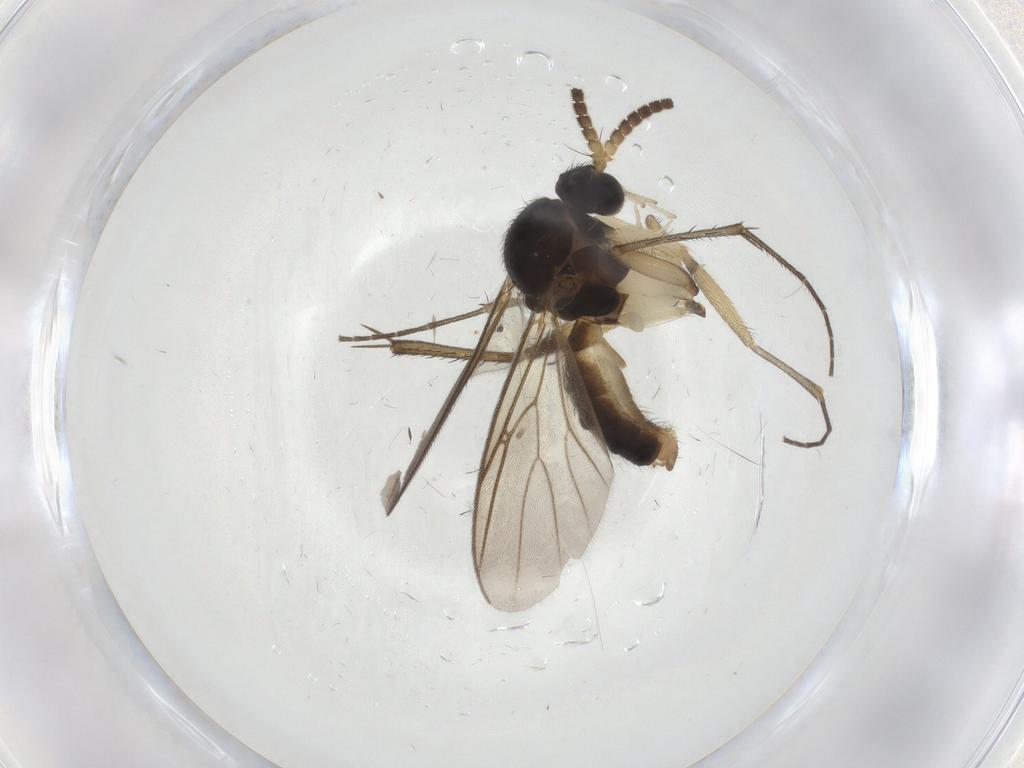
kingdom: Animalia
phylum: Arthropoda
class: Insecta
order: Diptera
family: Mycetophilidae
